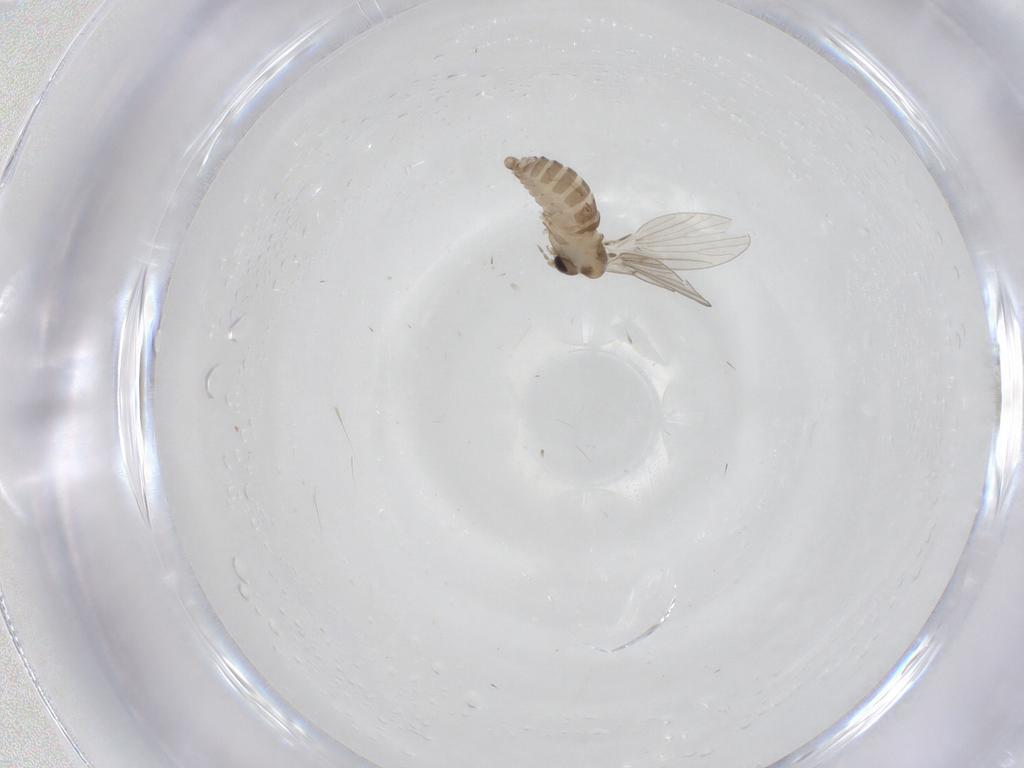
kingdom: Animalia
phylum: Arthropoda
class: Insecta
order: Diptera
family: Psychodidae
